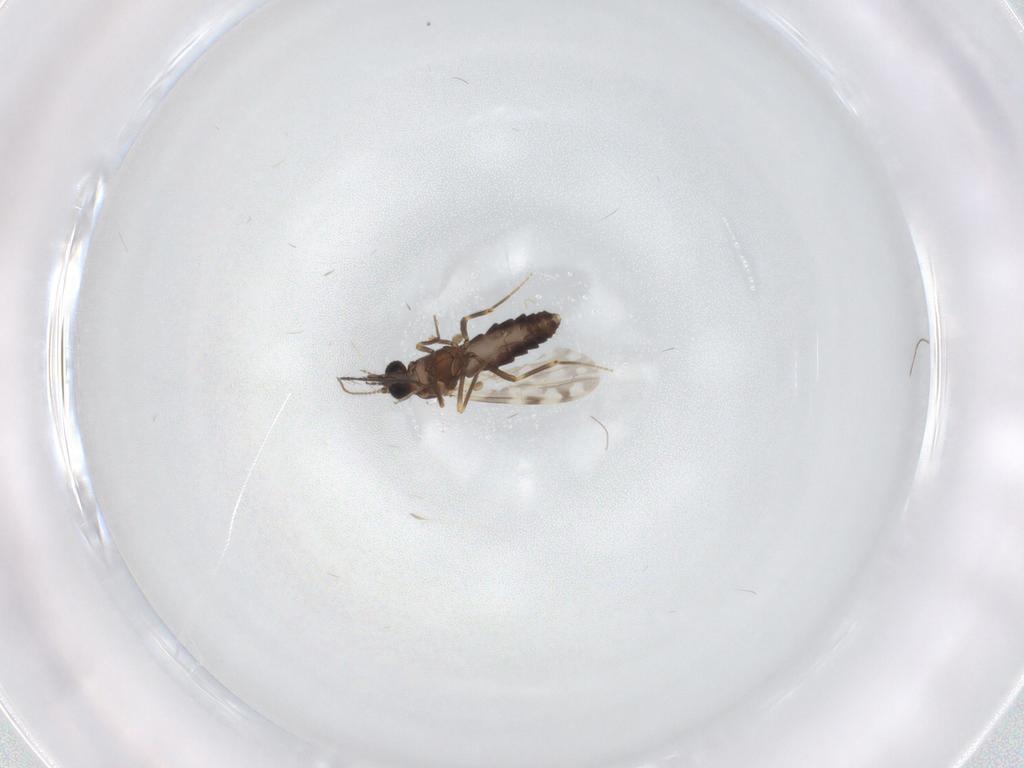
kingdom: Animalia
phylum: Arthropoda
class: Insecta
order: Diptera
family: Ceratopogonidae
